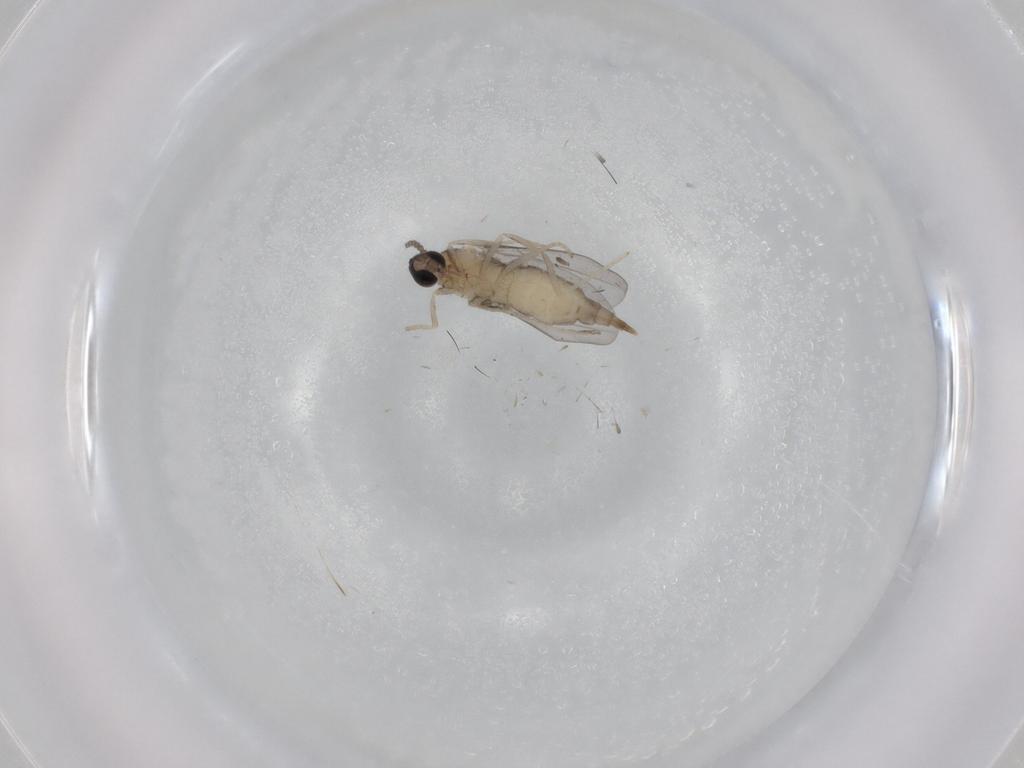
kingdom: Animalia
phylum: Arthropoda
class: Insecta
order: Diptera
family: Cecidomyiidae
